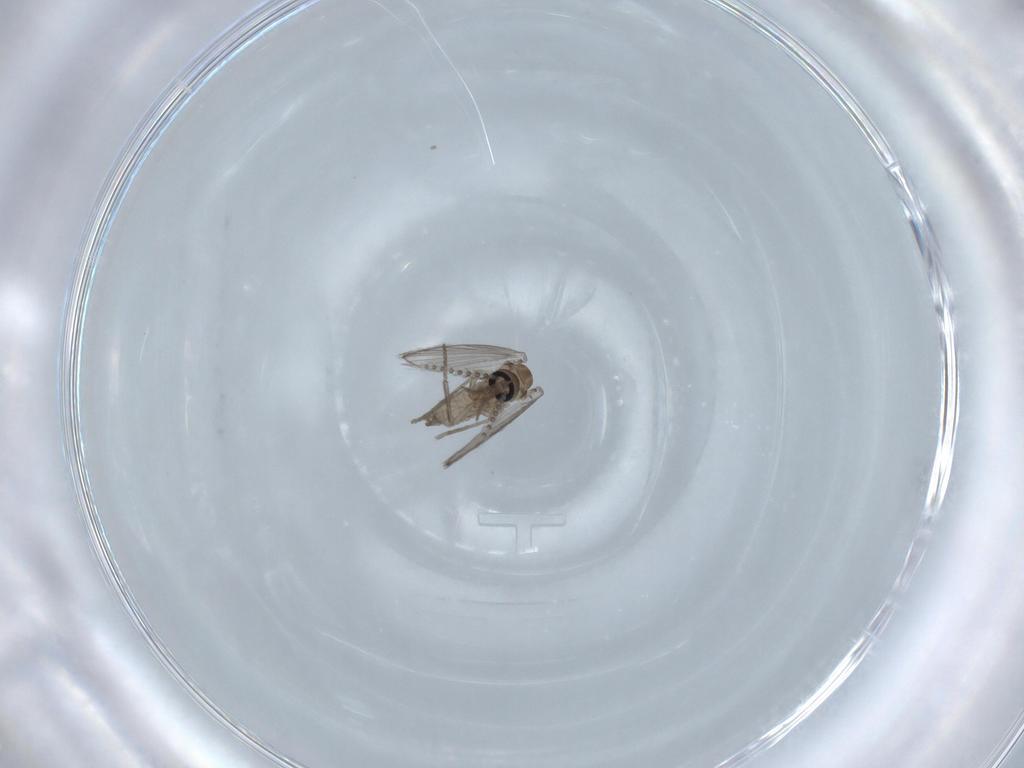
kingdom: Animalia
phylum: Arthropoda
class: Insecta
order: Diptera
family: Psychodidae
